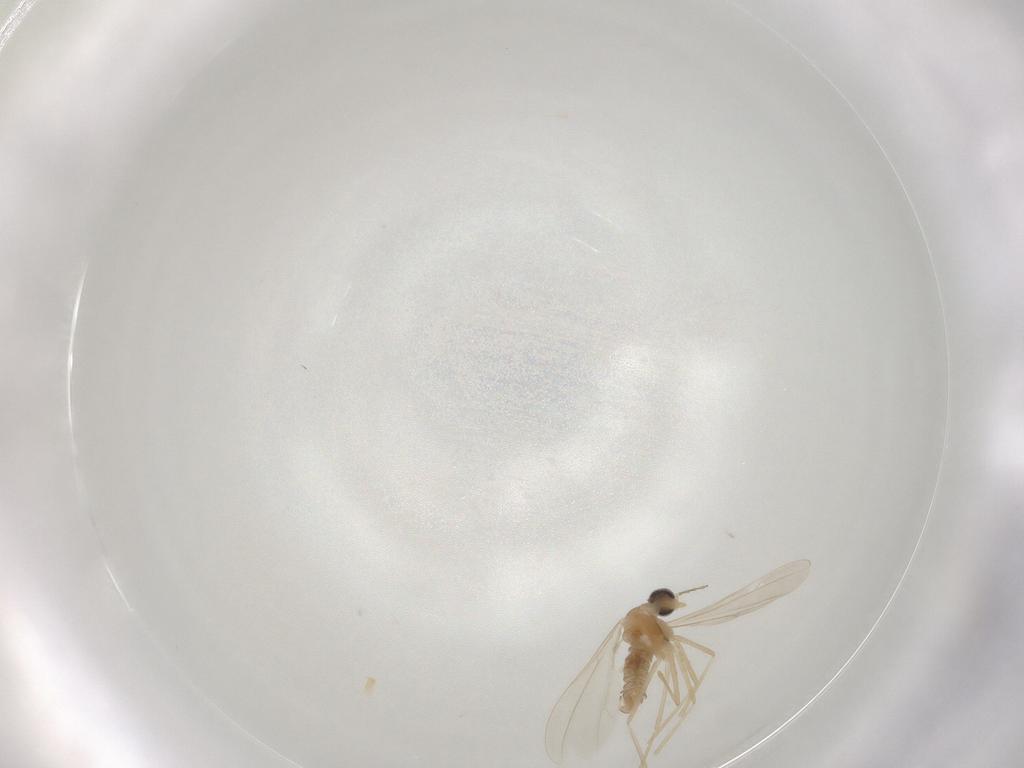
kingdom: Animalia
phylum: Arthropoda
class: Insecta
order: Diptera
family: Cecidomyiidae
